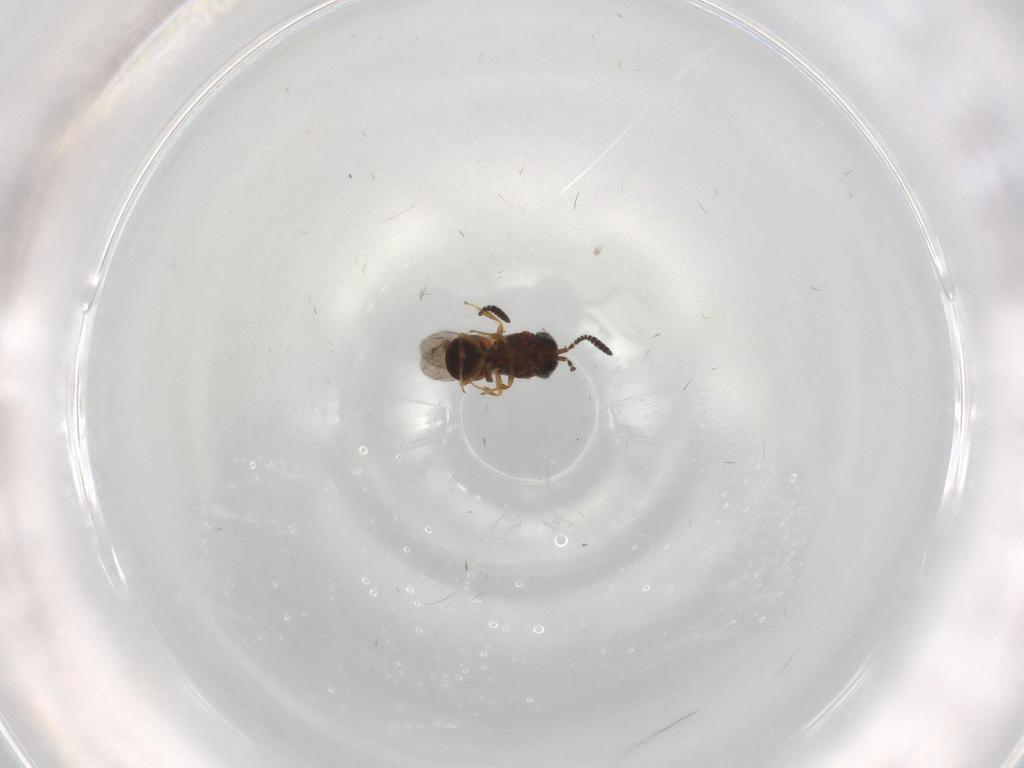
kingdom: Animalia
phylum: Arthropoda
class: Insecta
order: Hymenoptera
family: Scelionidae
